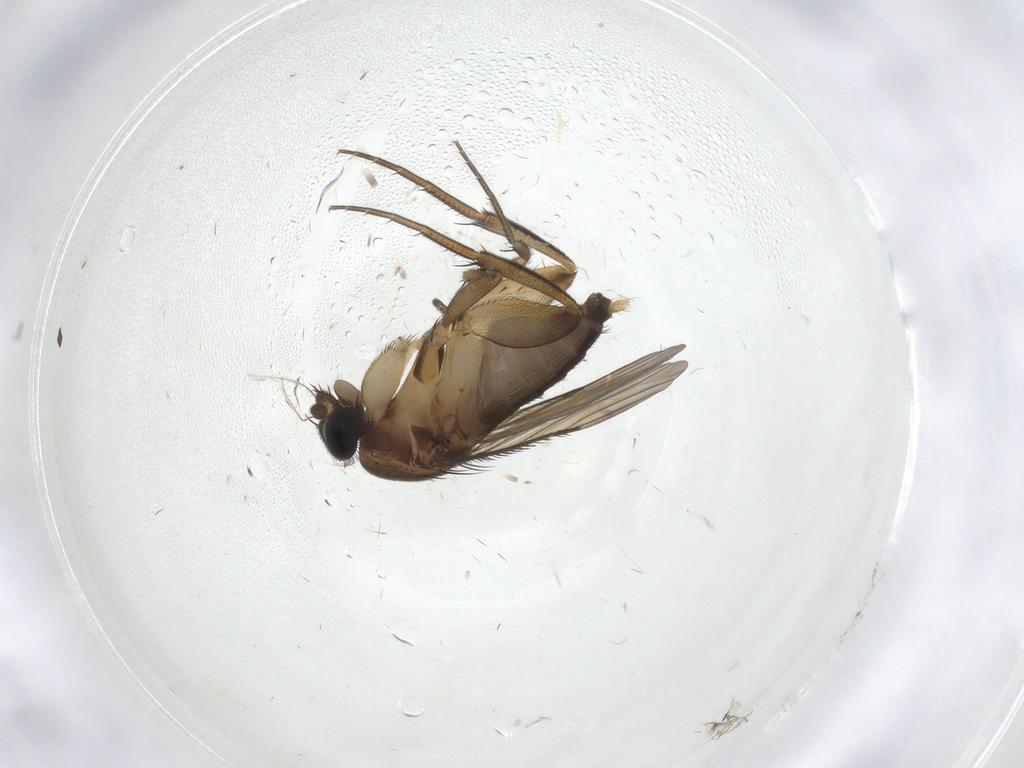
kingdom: Animalia
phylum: Arthropoda
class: Insecta
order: Diptera
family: Phoridae
